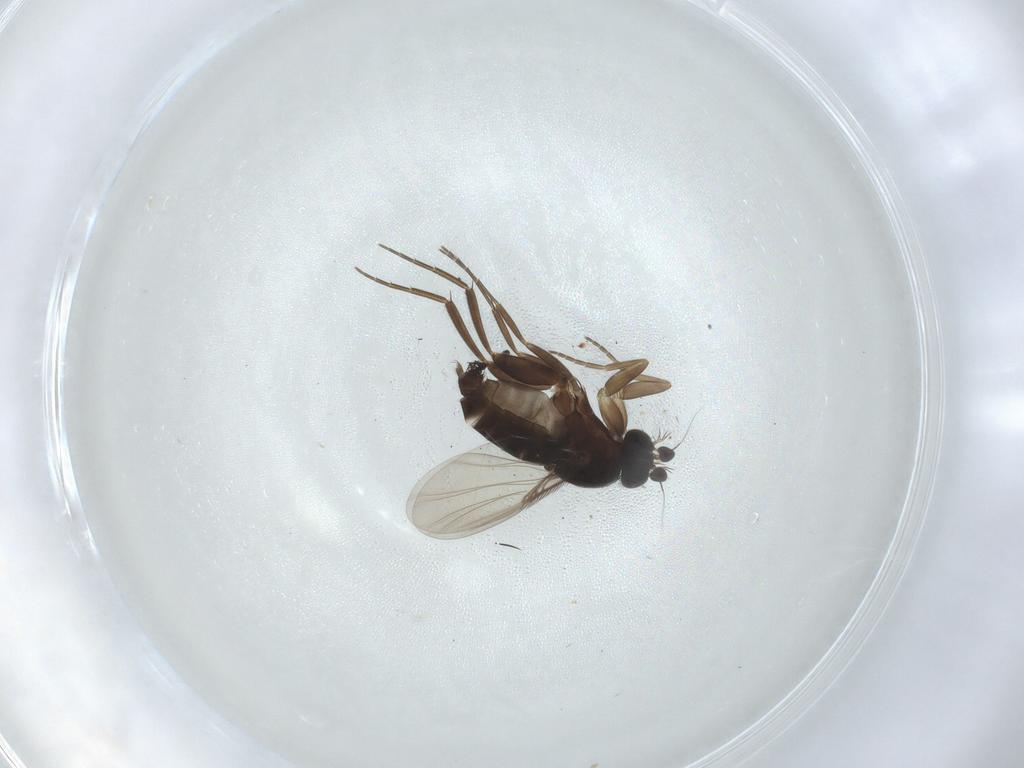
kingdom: Animalia
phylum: Arthropoda
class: Insecta
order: Diptera
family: Phoridae
